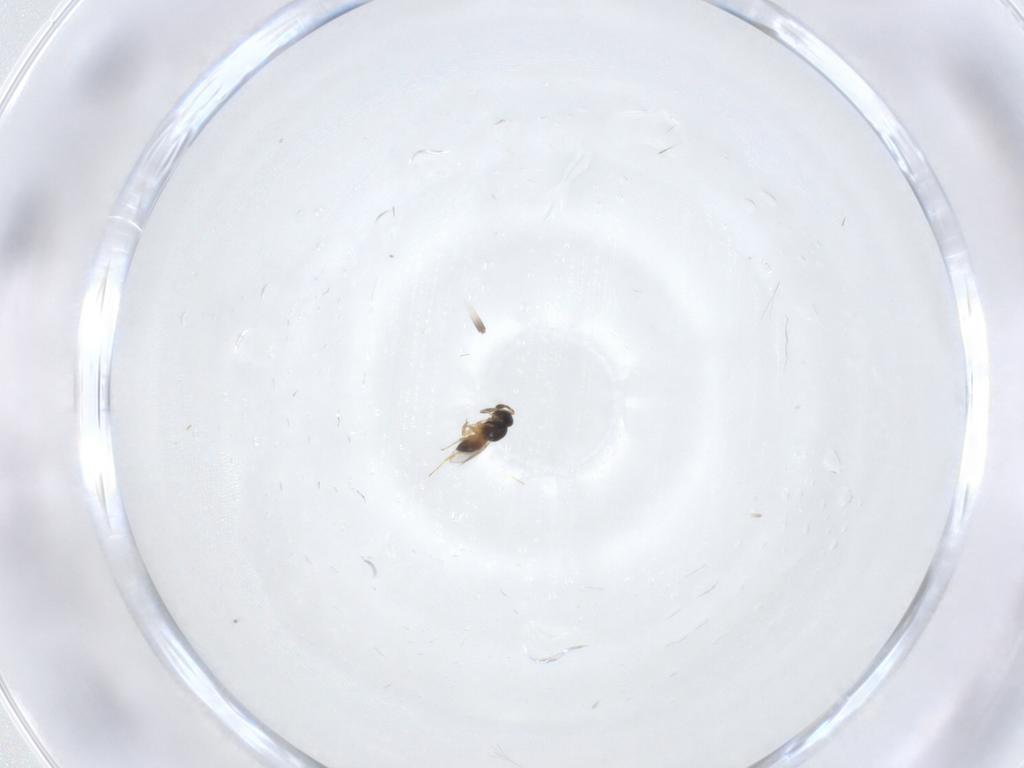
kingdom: Animalia
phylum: Arthropoda
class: Insecta
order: Hymenoptera
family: Scelionidae
